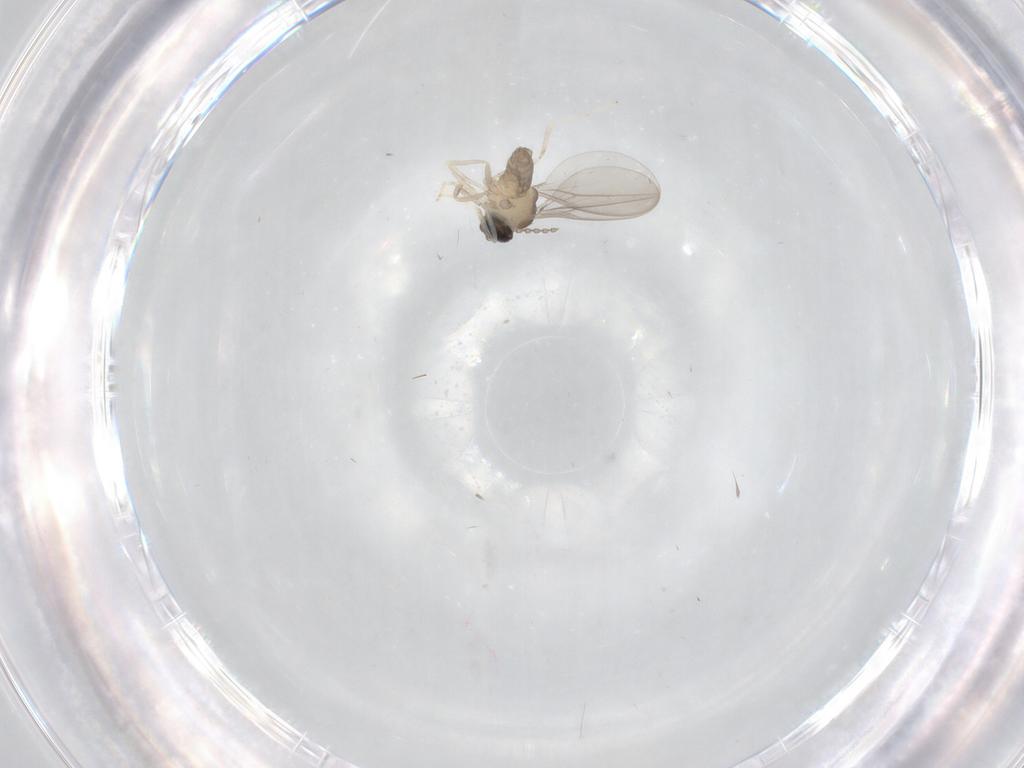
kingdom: Animalia
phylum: Arthropoda
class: Insecta
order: Diptera
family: Cecidomyiidae
